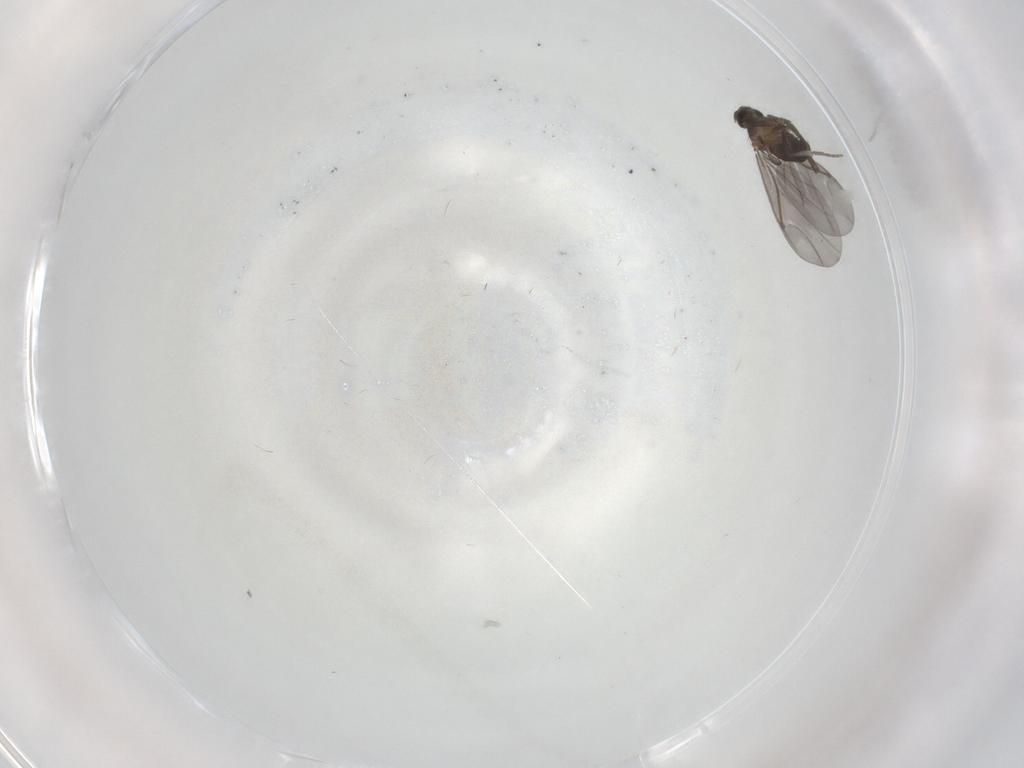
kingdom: Animalia
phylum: Arthropoda
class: Insecta
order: Diptera
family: Phoridae
